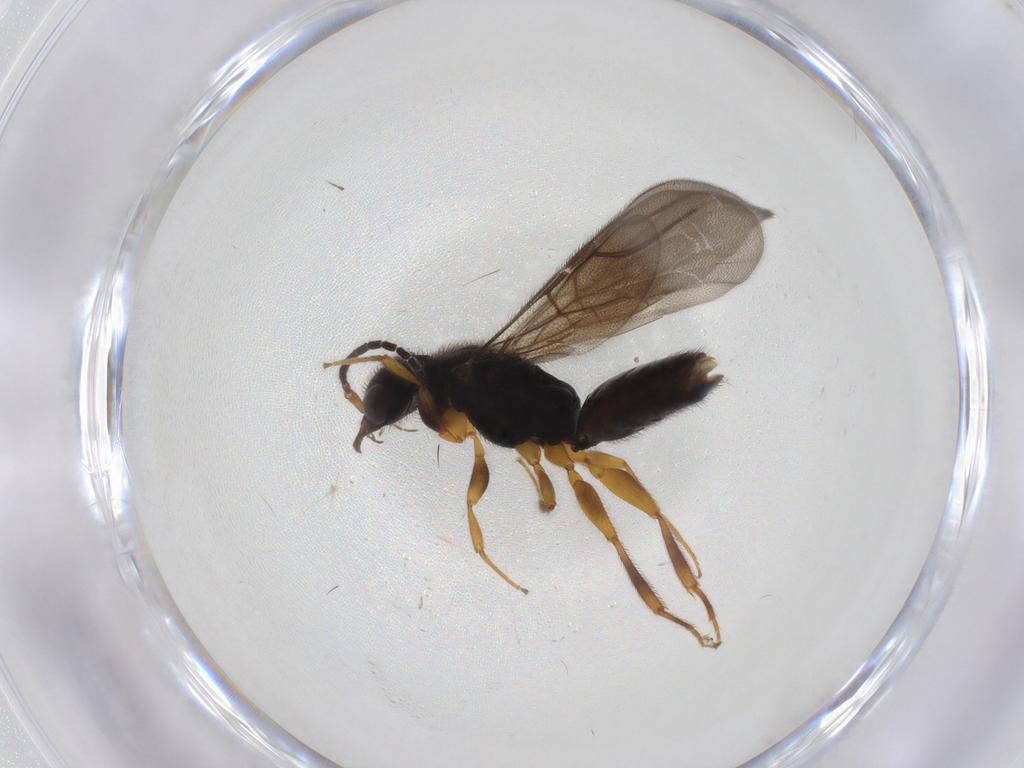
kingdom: Animalia
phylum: Arthropoda
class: Insecta
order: Hymenoptera
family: Bethylidae
